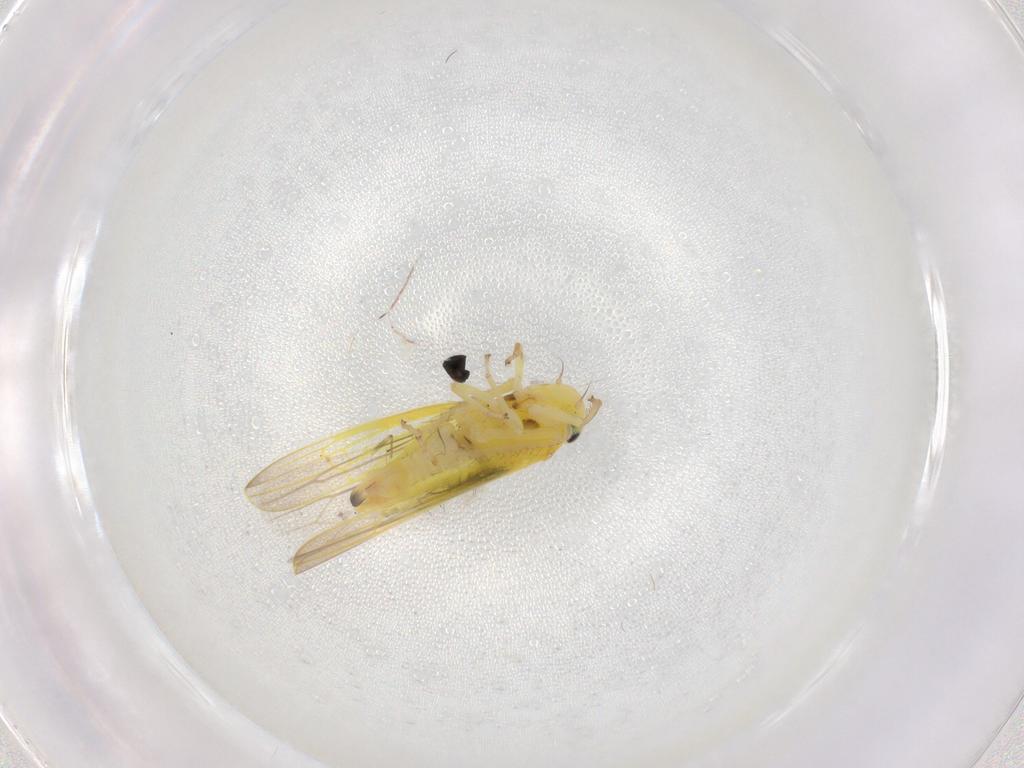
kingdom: Animalia
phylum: Arthropoda
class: Insecta
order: Hemiptera
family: Cicadellidae
